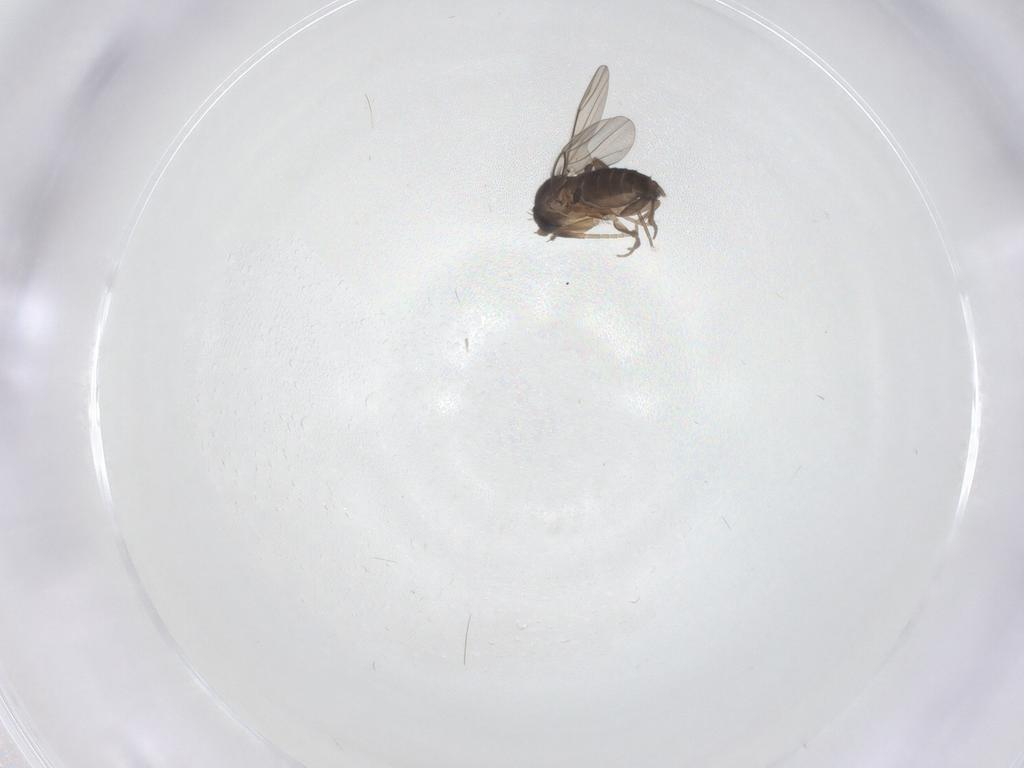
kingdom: Animalia
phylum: Arthropoda
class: Insecta
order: Diptera
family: Phoridae
